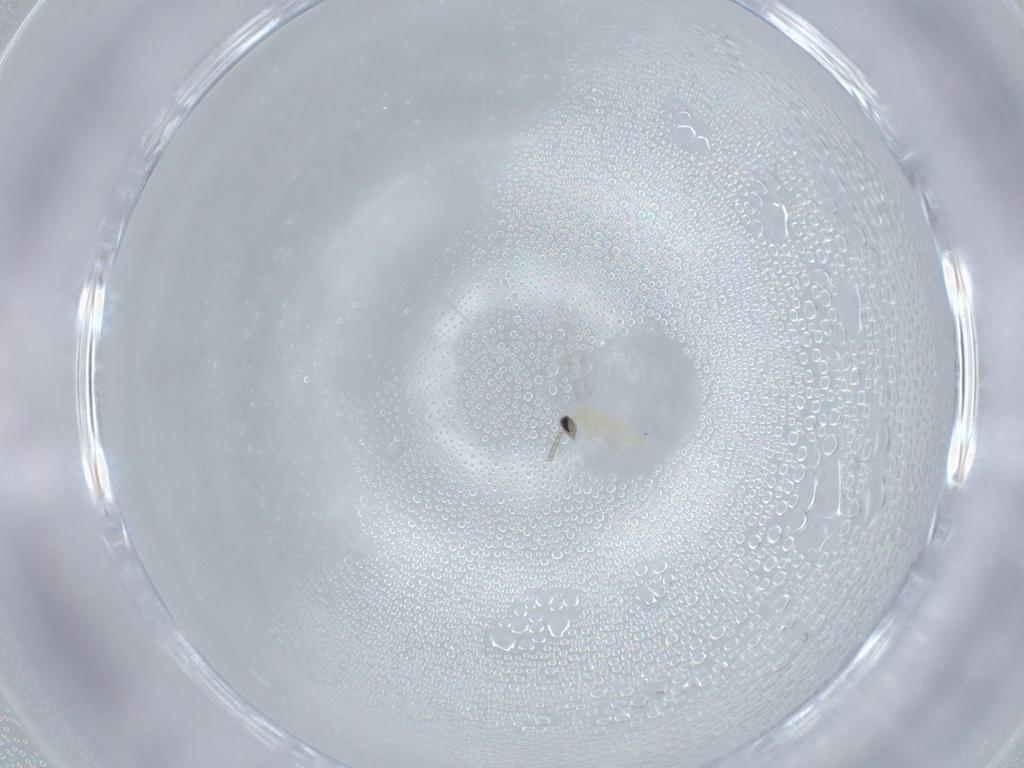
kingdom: Animalia
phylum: Arthropoda
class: Insecta
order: Diptera
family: Cecidomyiidae
